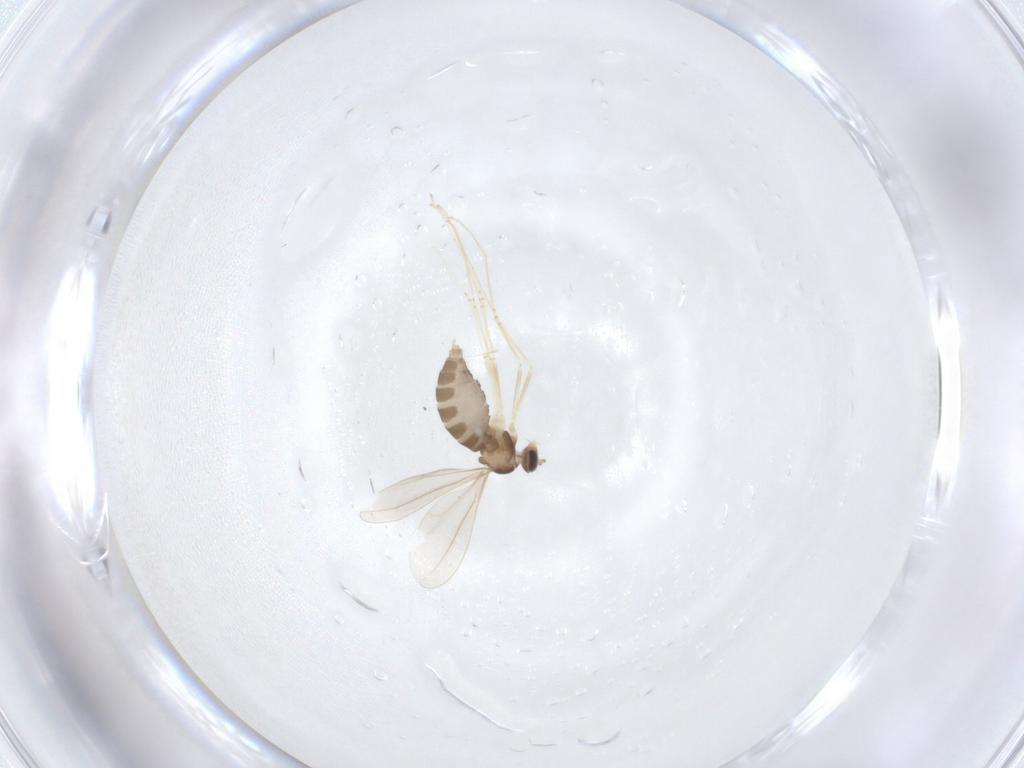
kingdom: Animalia
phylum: Arthropoda
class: Insecta
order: Diptera
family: Cecidomyiidae
